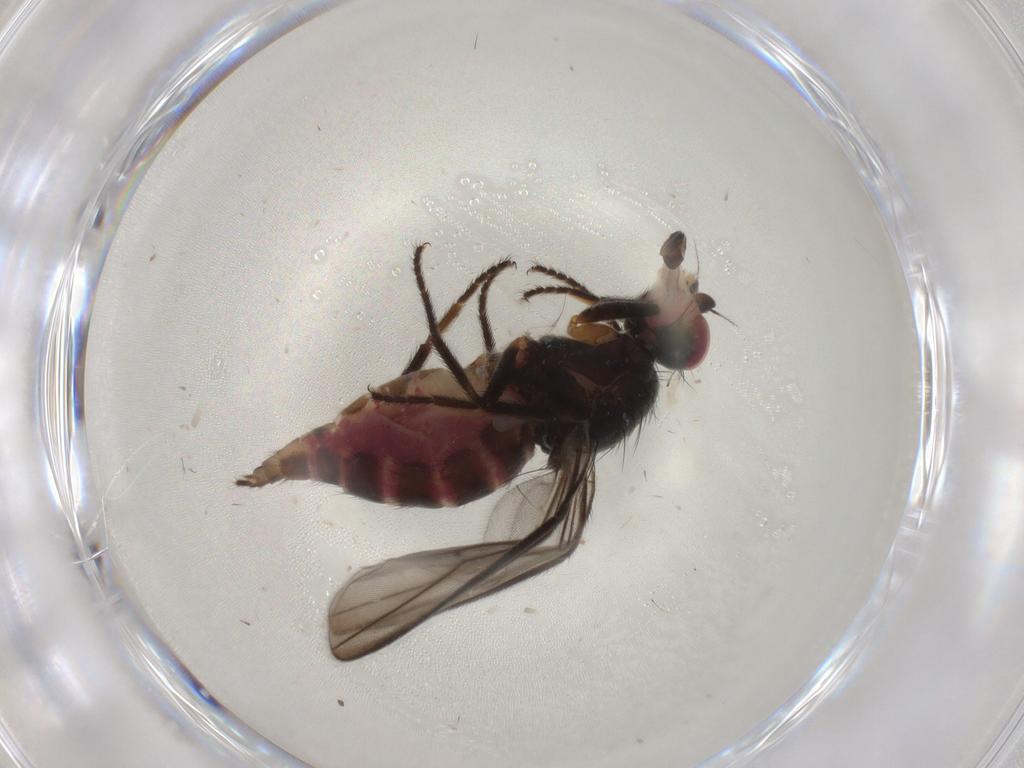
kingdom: Animalia
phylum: Arthropoda
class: Insecta
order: Diptera
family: Chloropidae
